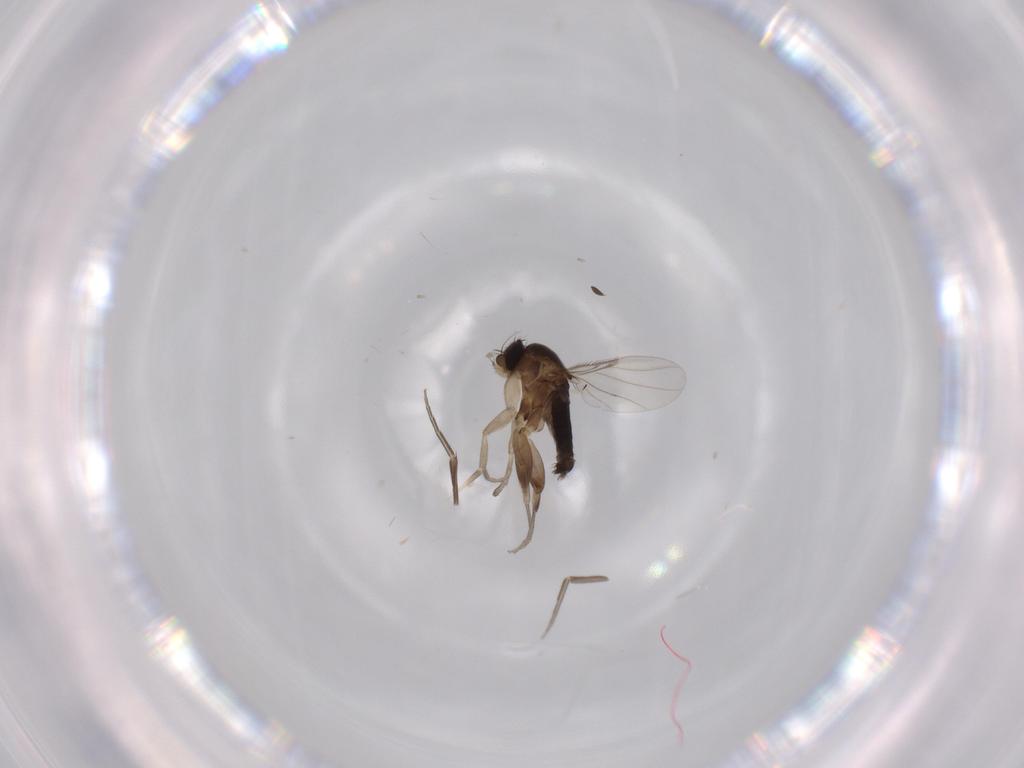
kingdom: Animalia
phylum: Arthropoda
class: Insecta
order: Diptera
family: Phoridae
